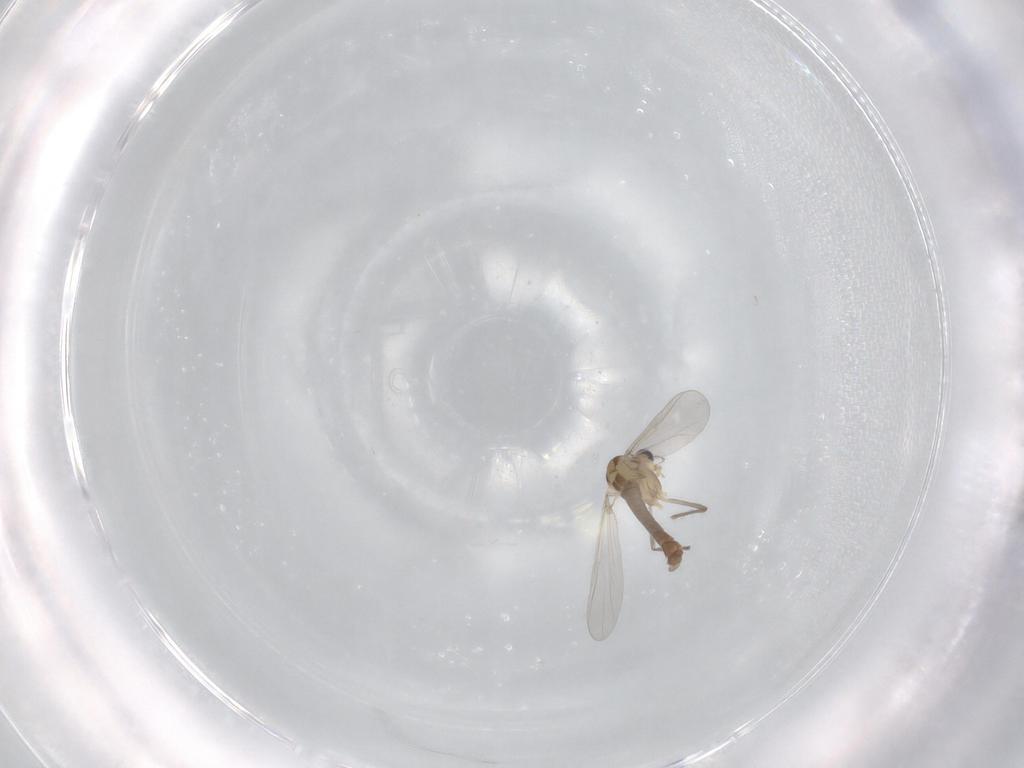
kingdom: Animalia
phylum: Arthropoda
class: Insecta
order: Diptera
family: Chironomidae
